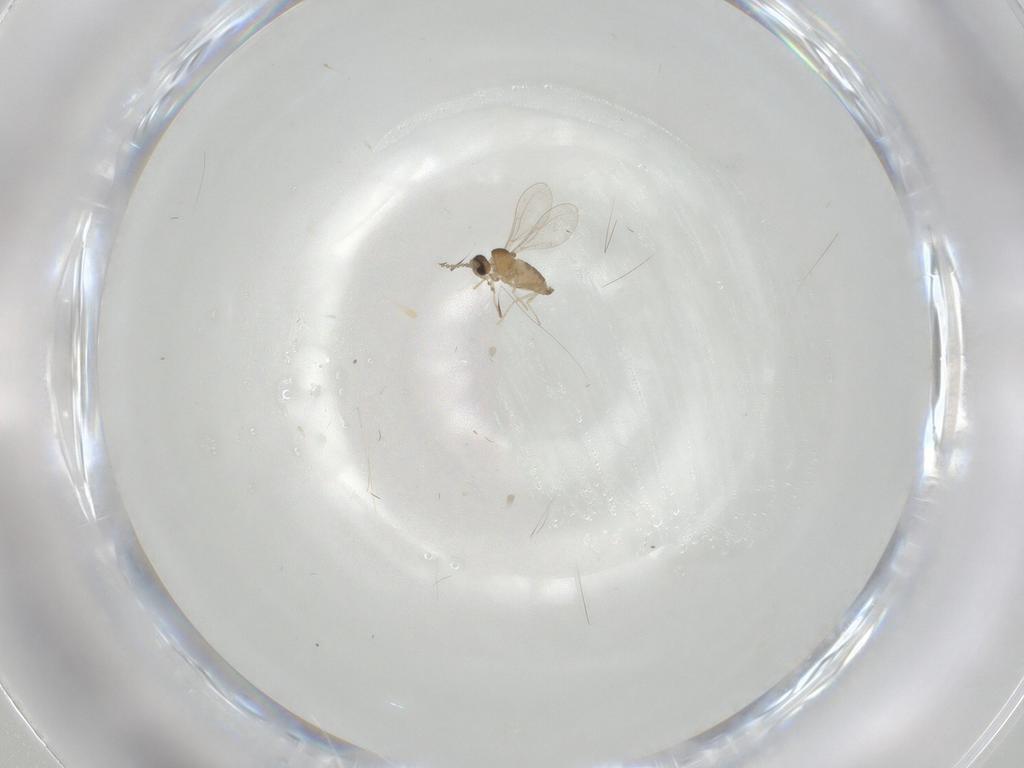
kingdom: Animalia
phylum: Arthropoda
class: Insecta
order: Diptera
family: Cecidomyiidae
